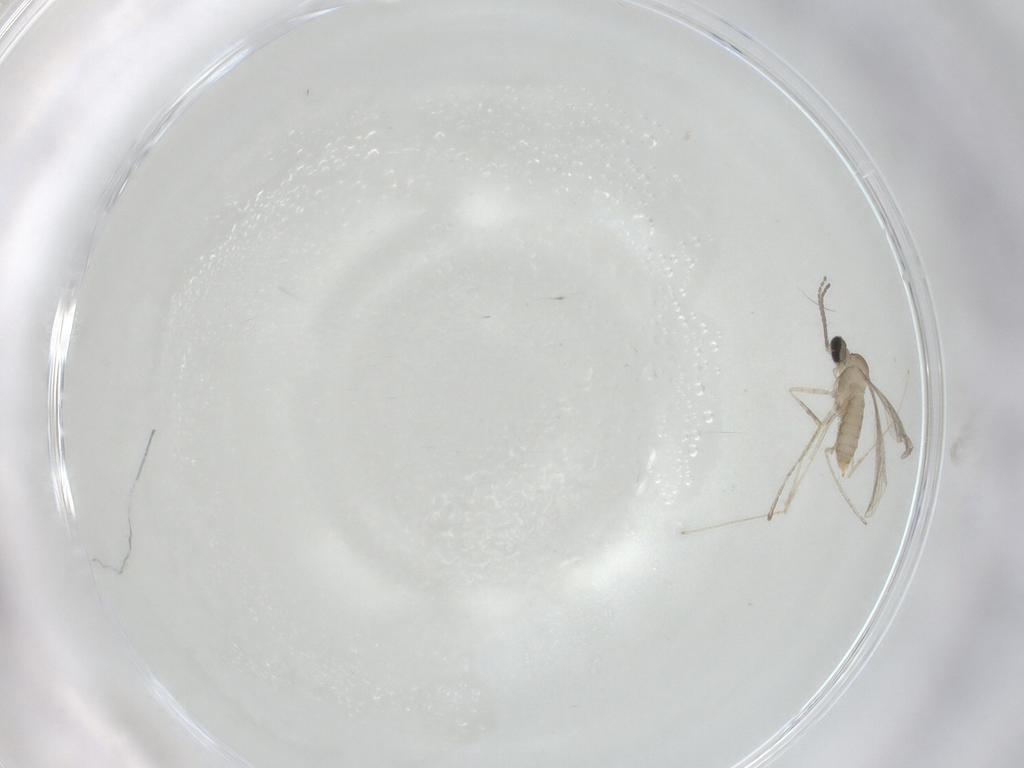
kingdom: Animalia
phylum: Arthropoda
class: Insecta
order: Diptera
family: Cecidomyiidae
